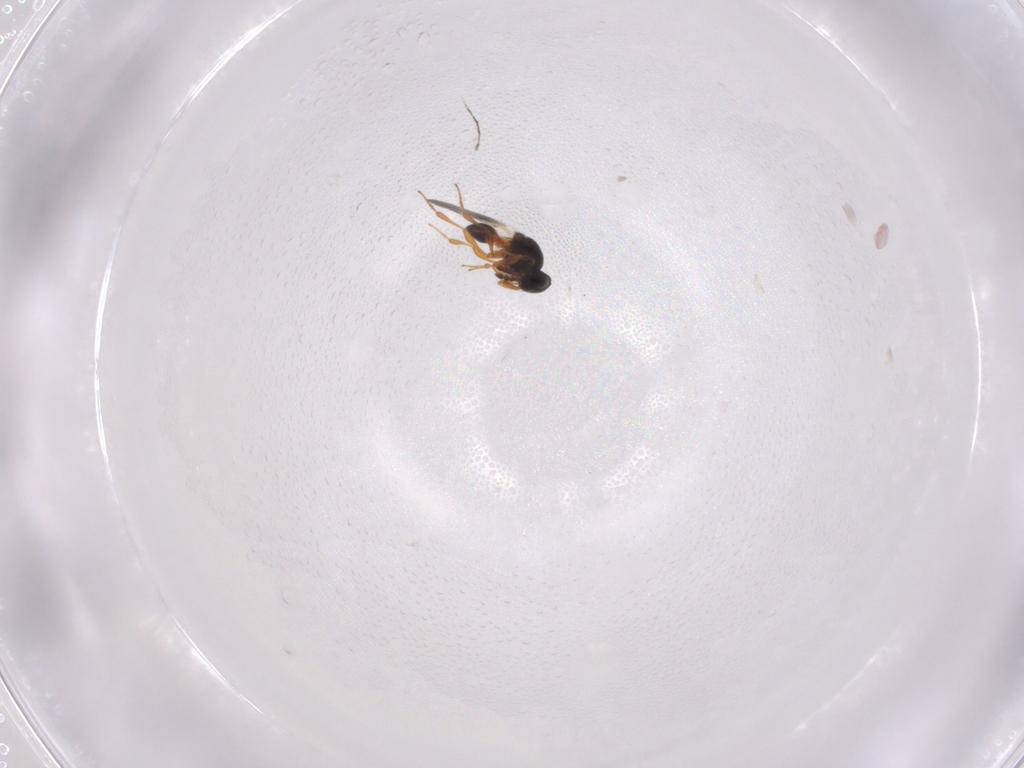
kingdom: Animalia
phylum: Arthropoda
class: Insecta
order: Hymenoptera
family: Platygastridae
